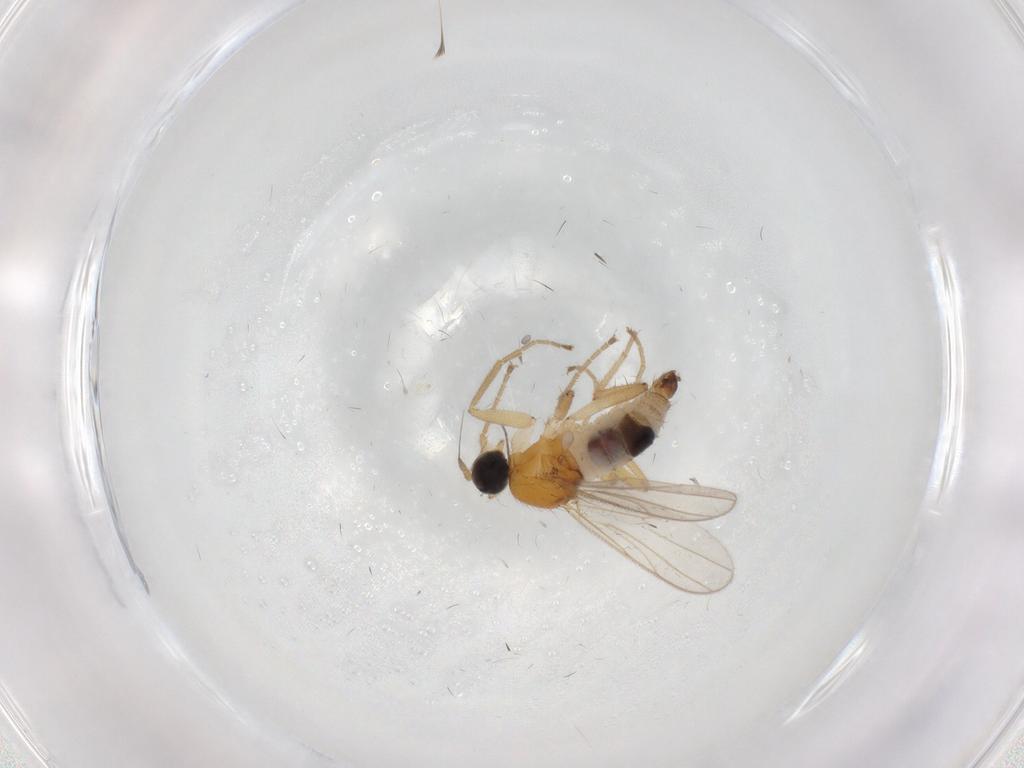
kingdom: Animalia
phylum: Arthropoda
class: Insecta
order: Diptera
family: Hybotidae
